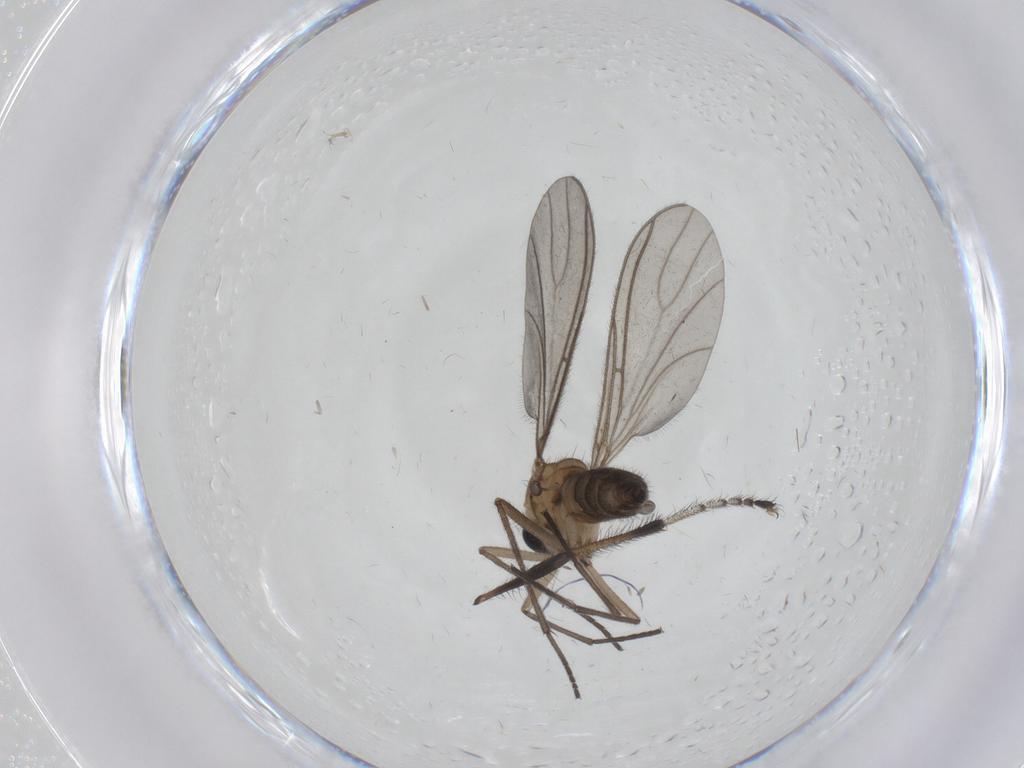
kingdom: Animalia
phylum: Arthropoda
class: Insecta
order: Diptera
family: Sciaridae
